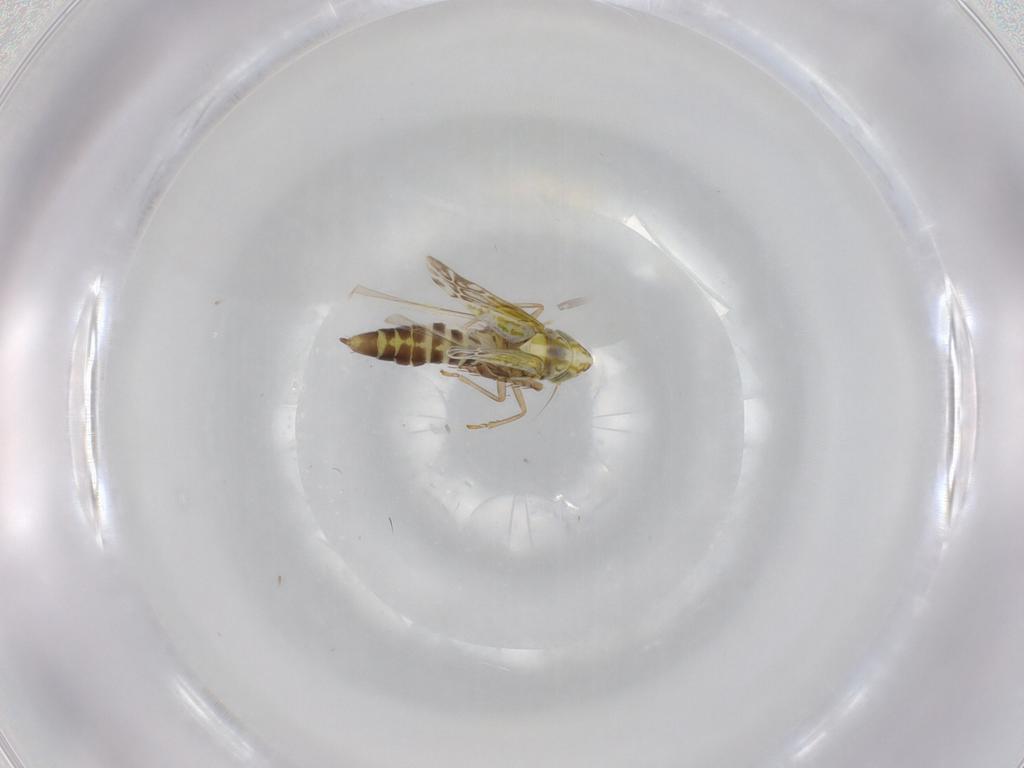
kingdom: Animalia
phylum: Arthropoda
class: Insecta
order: Hemiptera
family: Cicadellidae
